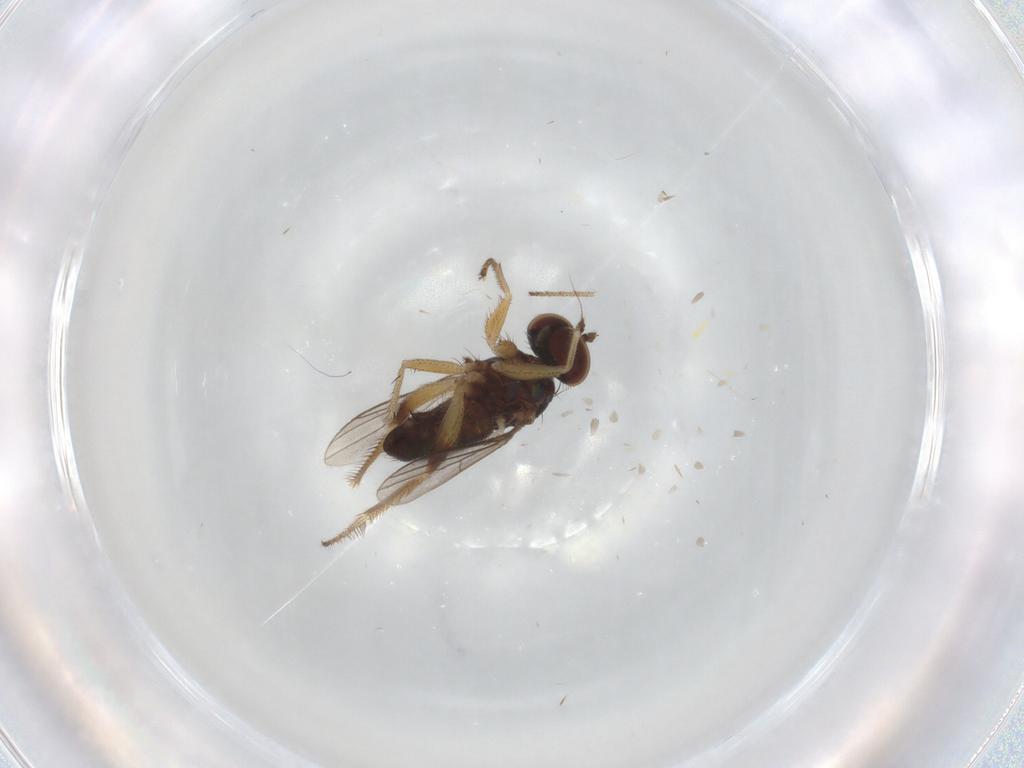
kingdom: Animalia
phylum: Arthropoda
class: Insecta
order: Diptera
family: Dolichopodidae
